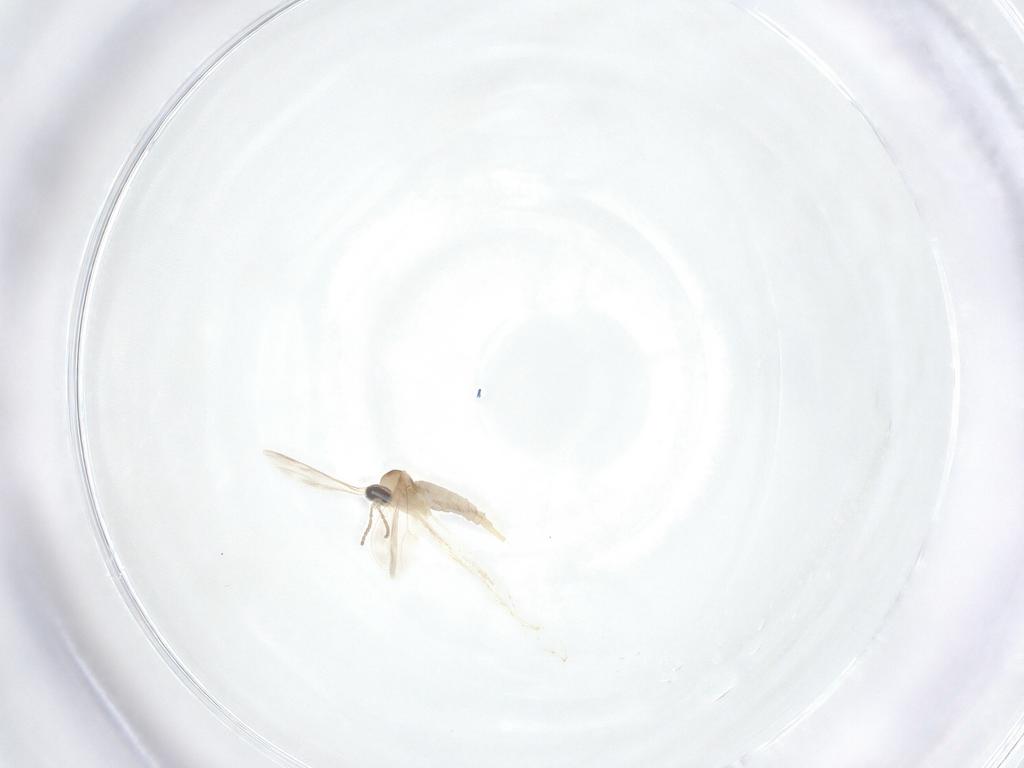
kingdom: Animalia
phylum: Arthropoda
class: Insecta
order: Diptera
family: Cecidomyiidae
